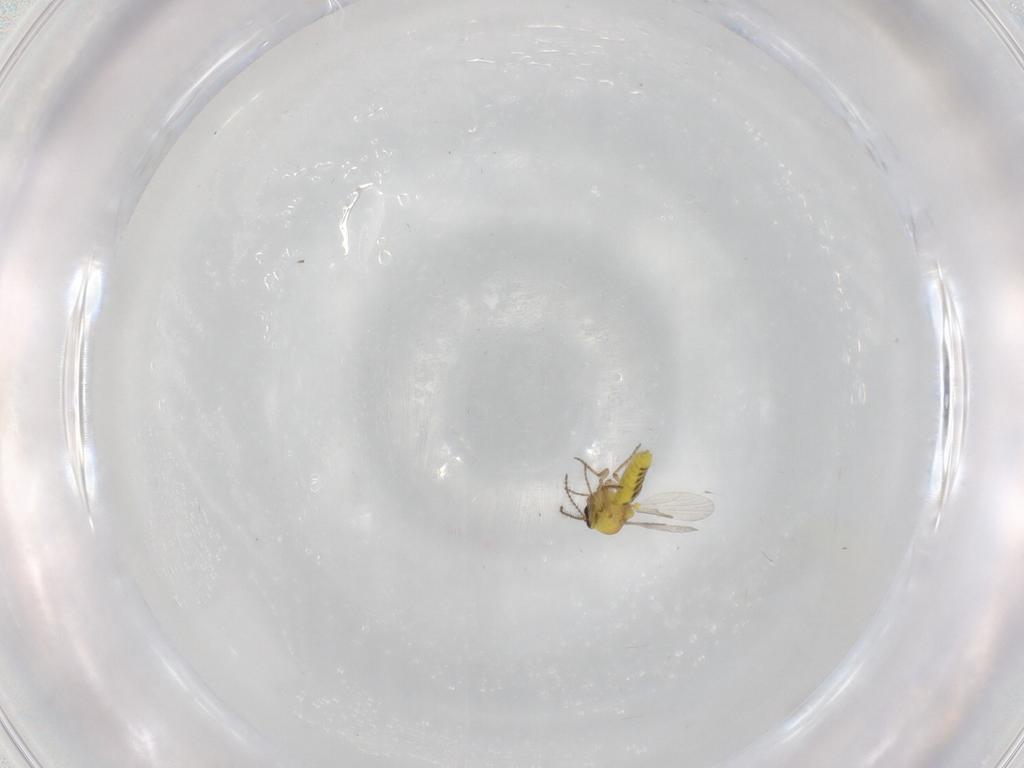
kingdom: Animalia
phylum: Arthropoda
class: Insecta
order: Diptera
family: Ceratopogonidae
